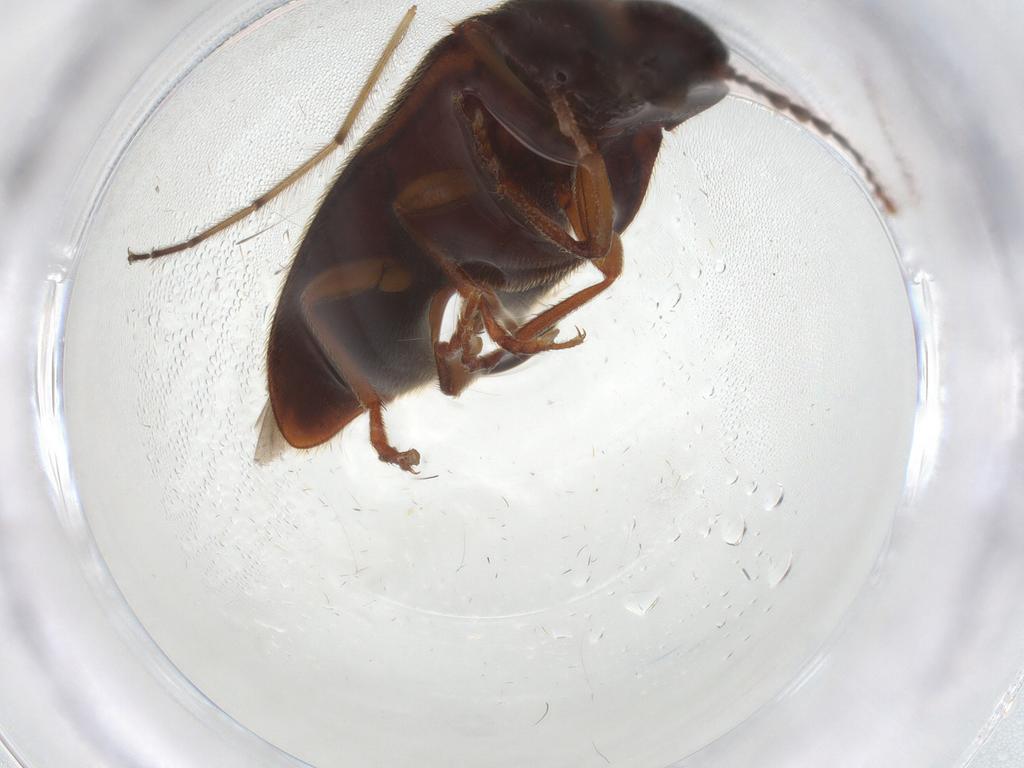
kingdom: Animalia
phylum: Arthropoda
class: Insecta
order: Coleoptera
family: Elateridae
